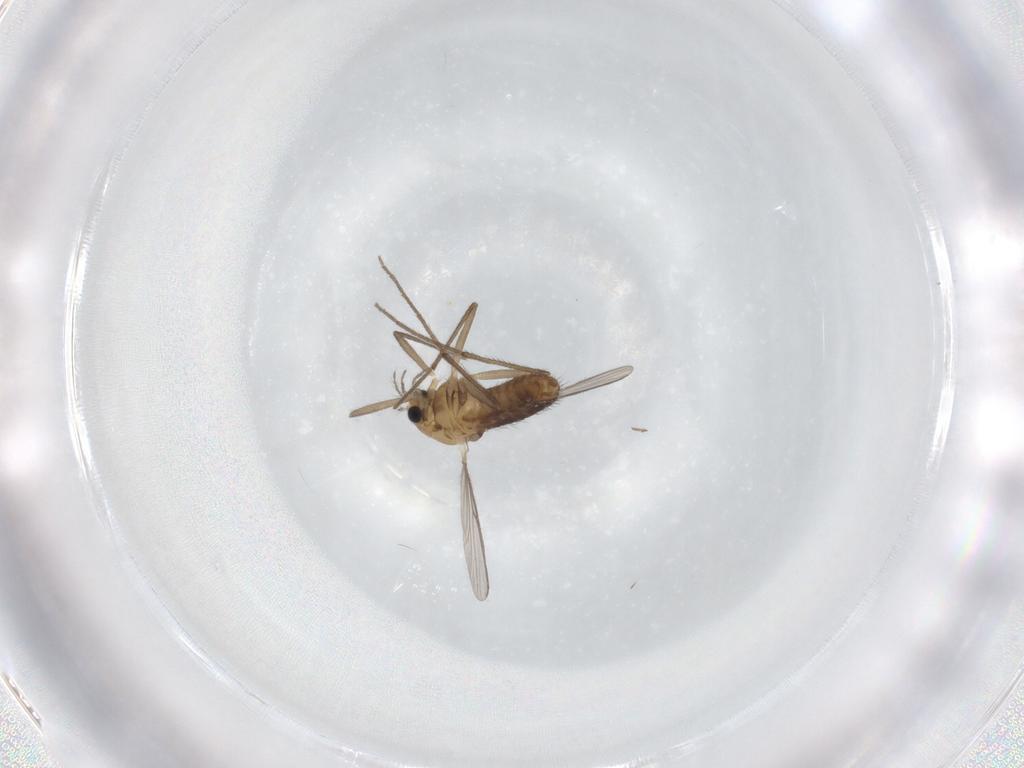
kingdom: Animalia
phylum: Arthropoda
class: Insecta
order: Diptera
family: Chironomidae
